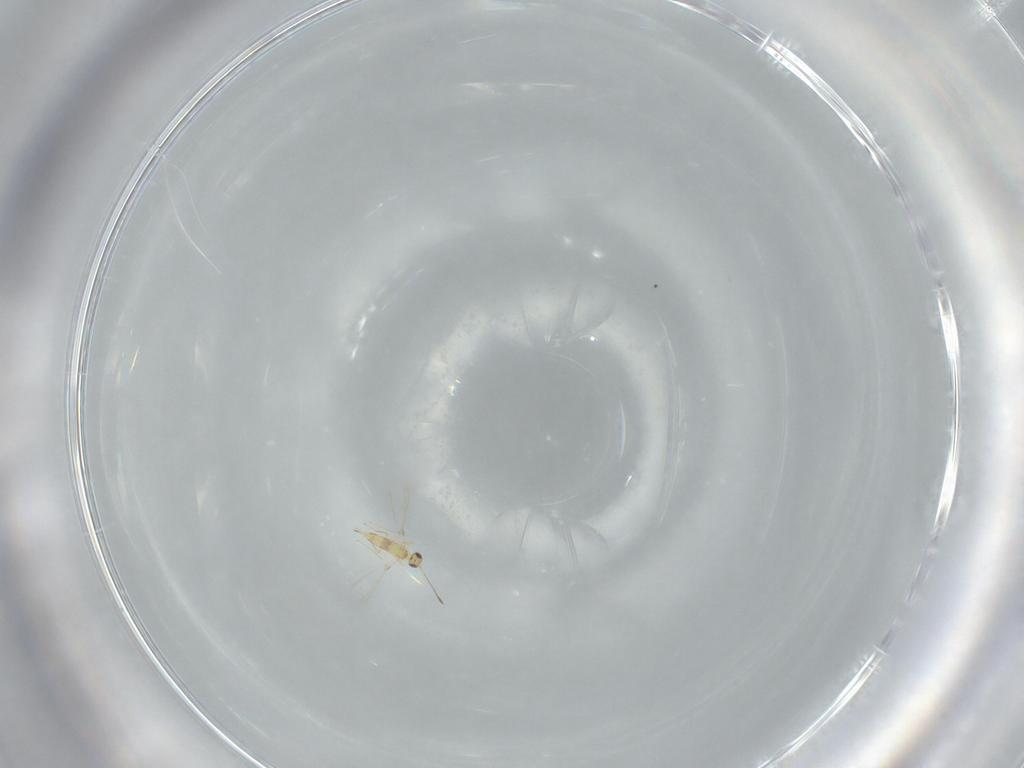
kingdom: Animalia
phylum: Arthropoda
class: Insecta
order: Hymenoptera
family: Mymaridae
